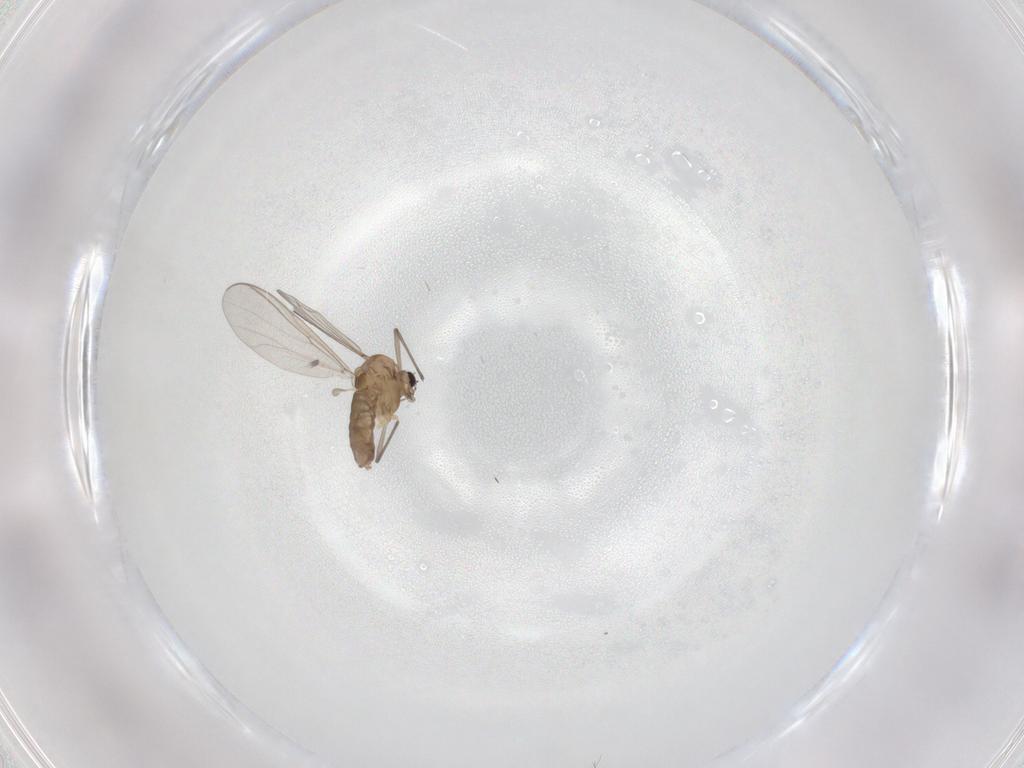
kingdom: Animalia
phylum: Arthropoda
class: Insecta
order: Diptera
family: Chironomidae
